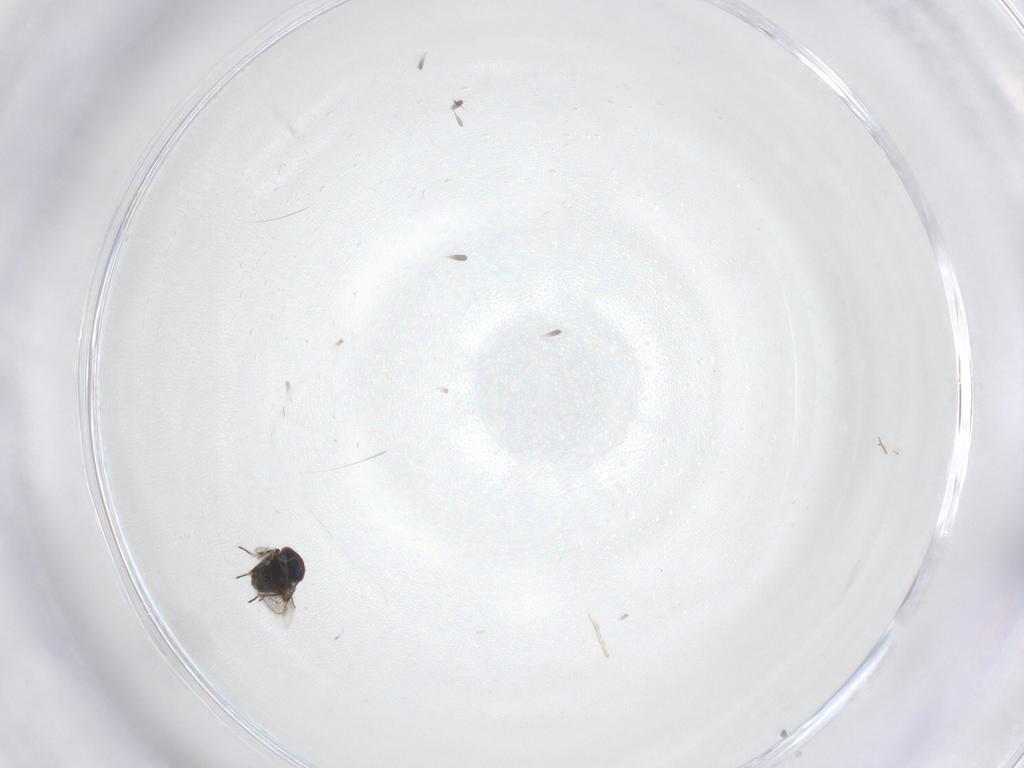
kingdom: Animalia
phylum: Arthropoda
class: Insecta
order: Hymenoptera
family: Eulophidae
